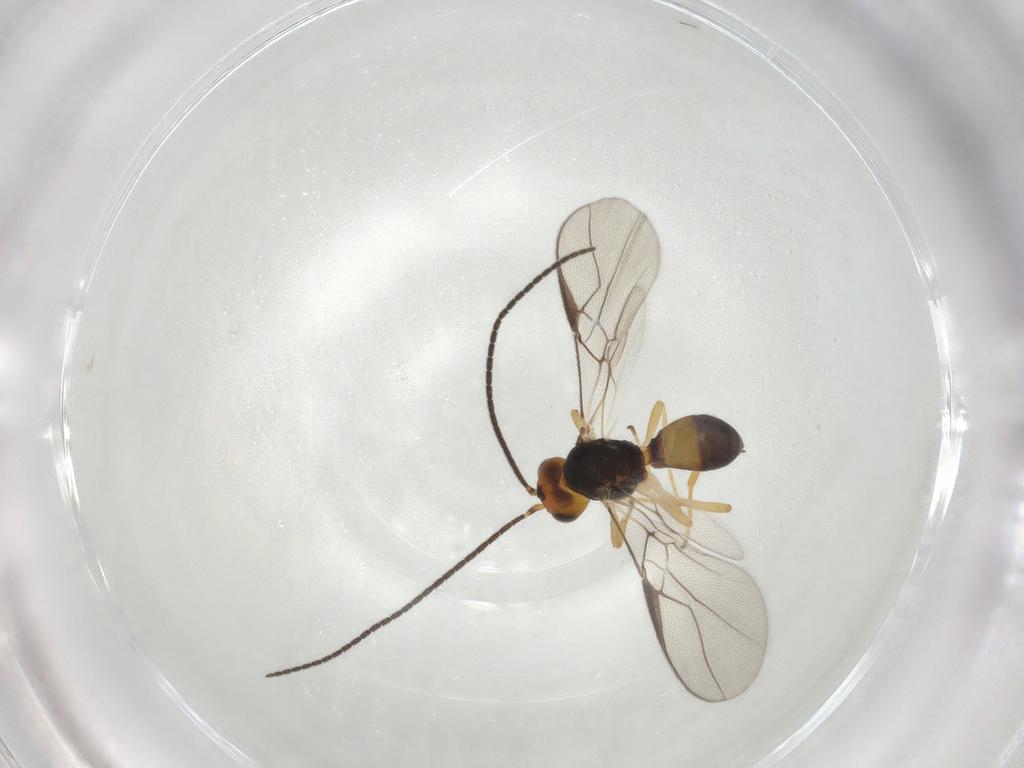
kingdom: Animalia
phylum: Arthropoda
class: Insecta
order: Hymenoptera
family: Braconidae
